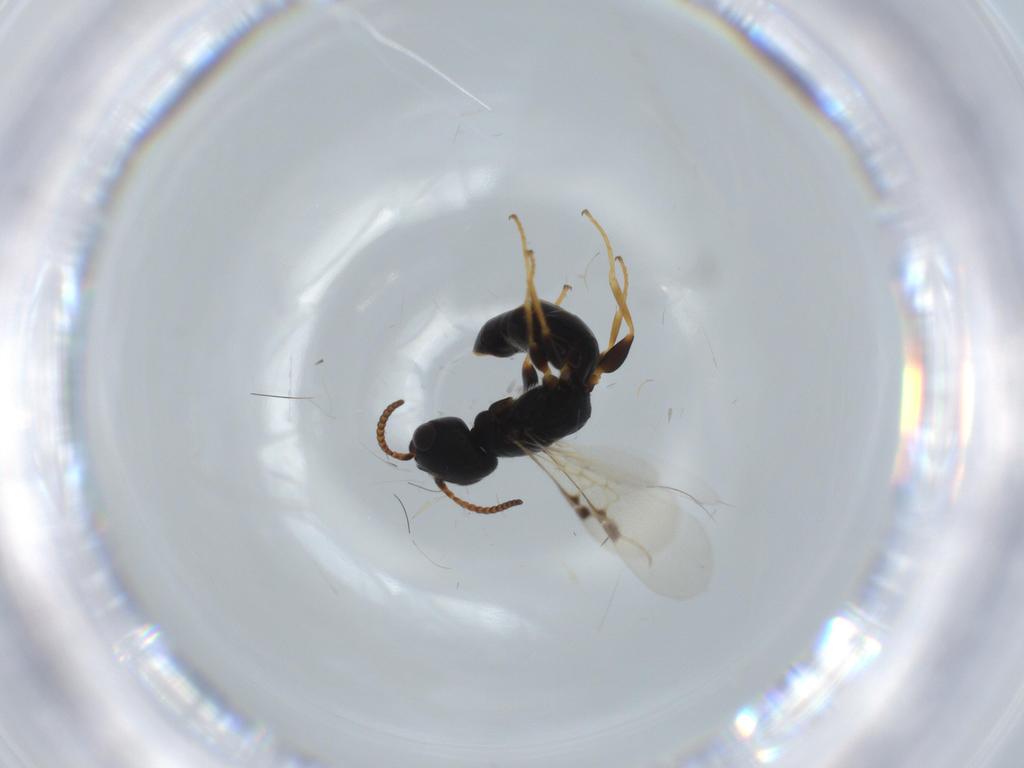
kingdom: Animalia
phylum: Arthropoda
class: Insecta
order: Hymenoptera
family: Bethylidae
